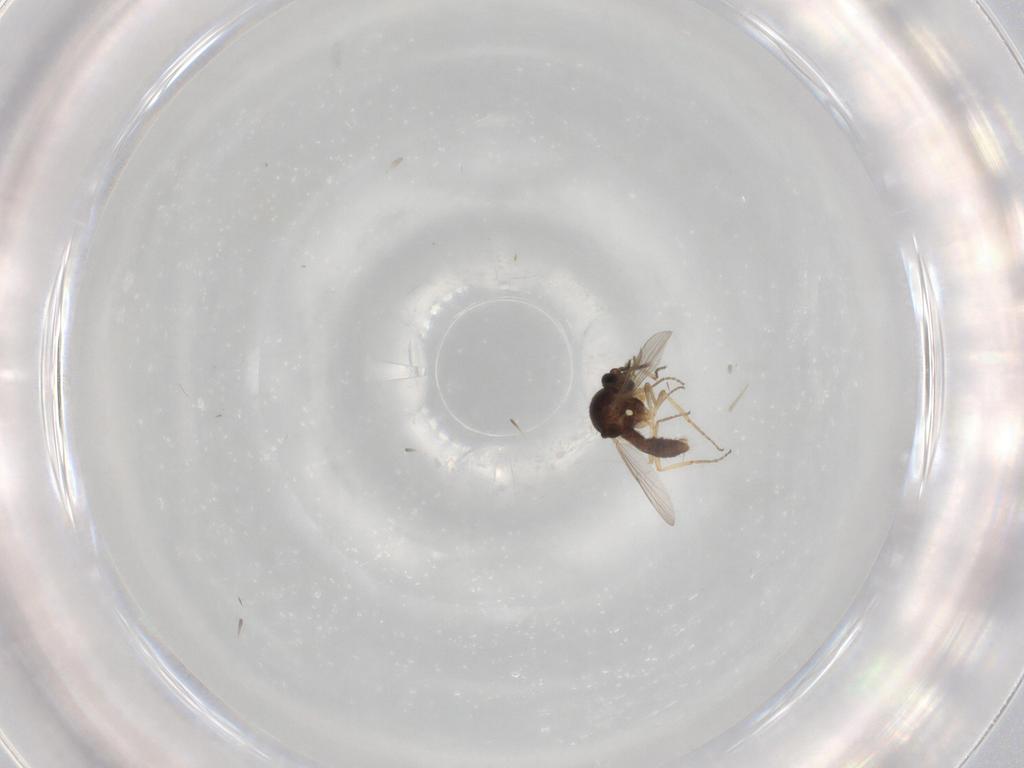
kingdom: Animalia
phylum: Arthropoda
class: Insecta
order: Diptera
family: Ceratopogonidae
